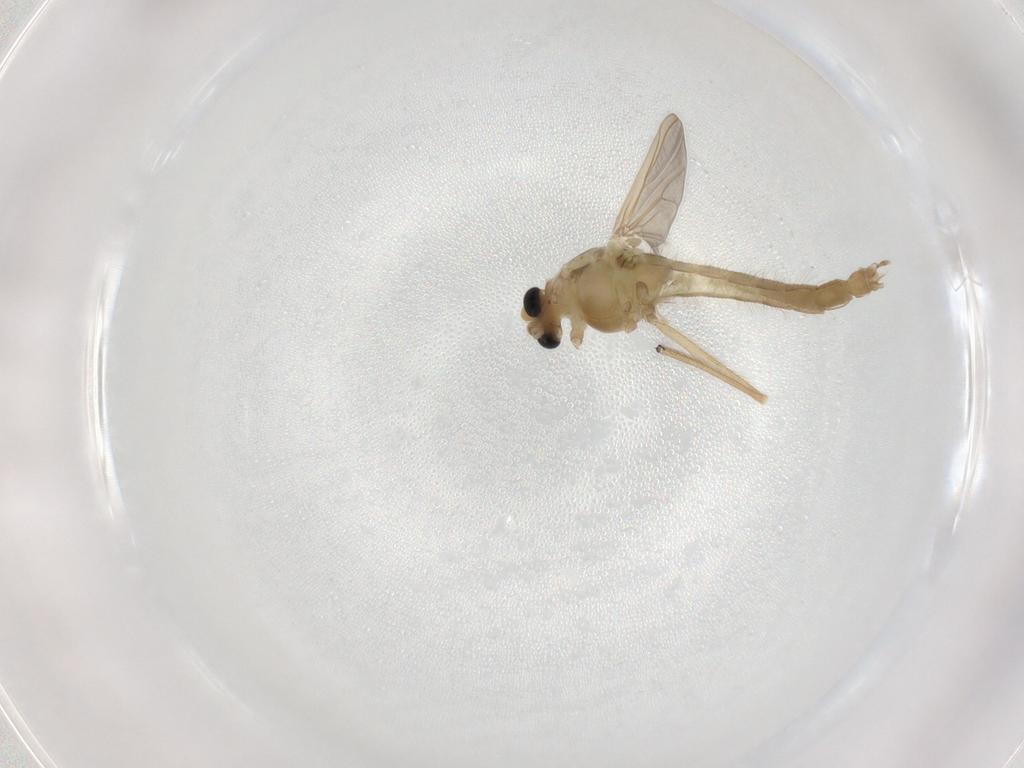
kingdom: Animalia
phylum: Arthropoda
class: Insecta
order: Diptera
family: Chironomidae
